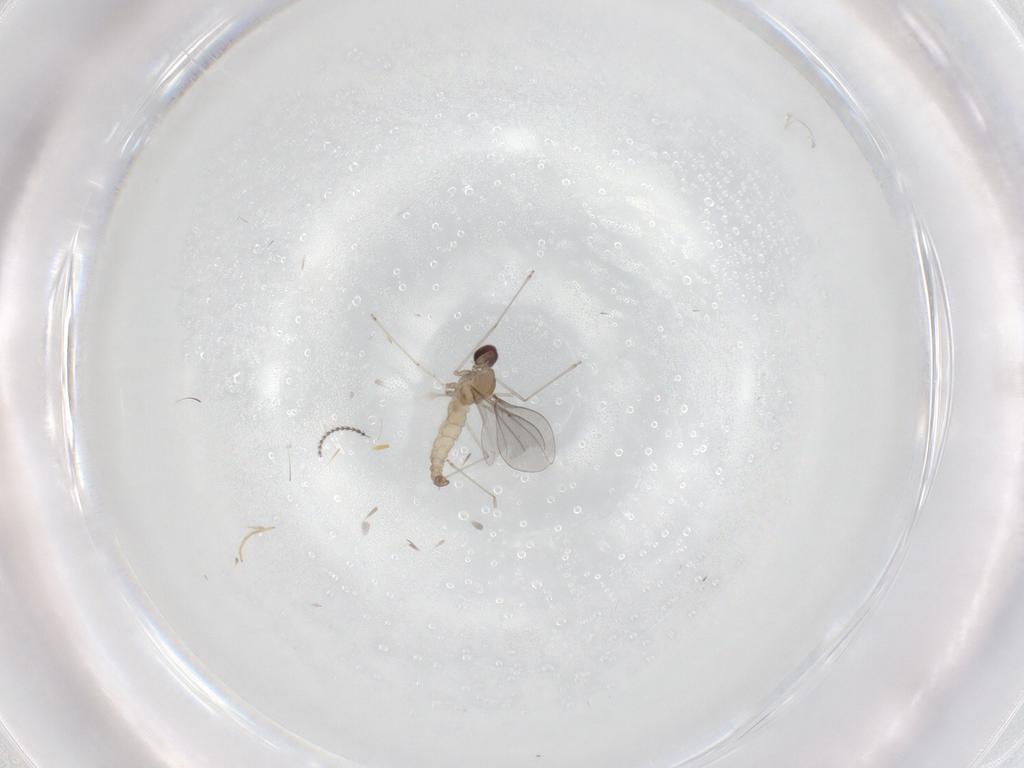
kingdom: Animalia
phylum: Arthropoda
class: Insecta
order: Diptera
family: Cecidomyiidae
